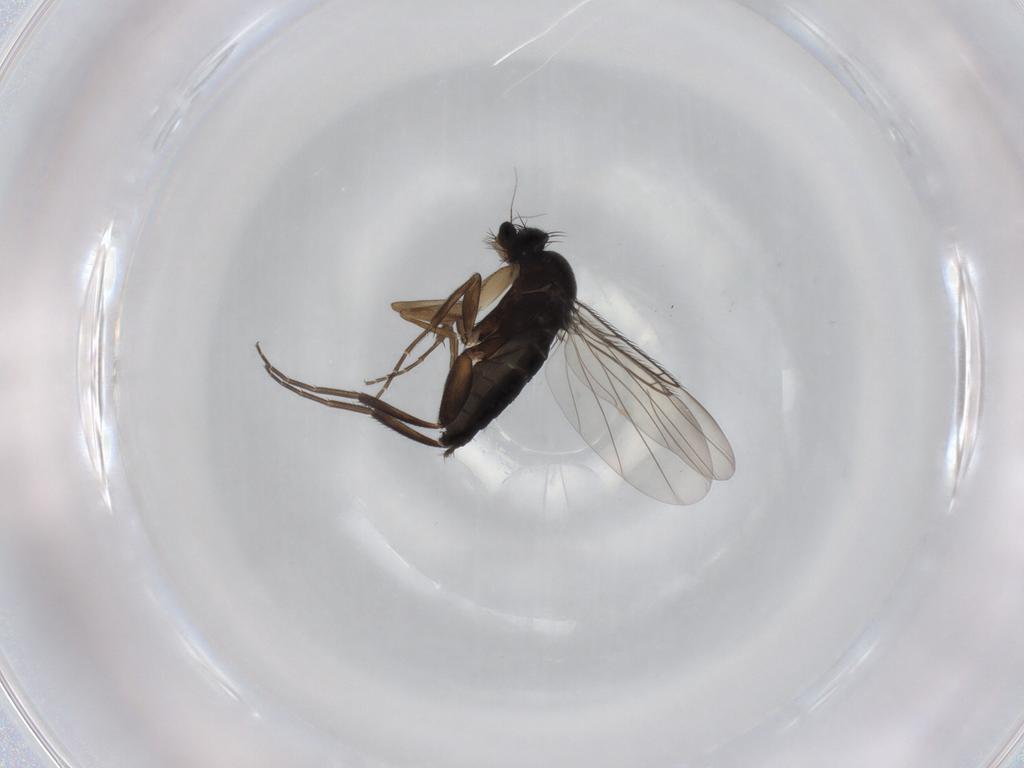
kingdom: Animalia
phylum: Arthropoda
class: Insecta
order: Diptera
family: Phoridae
